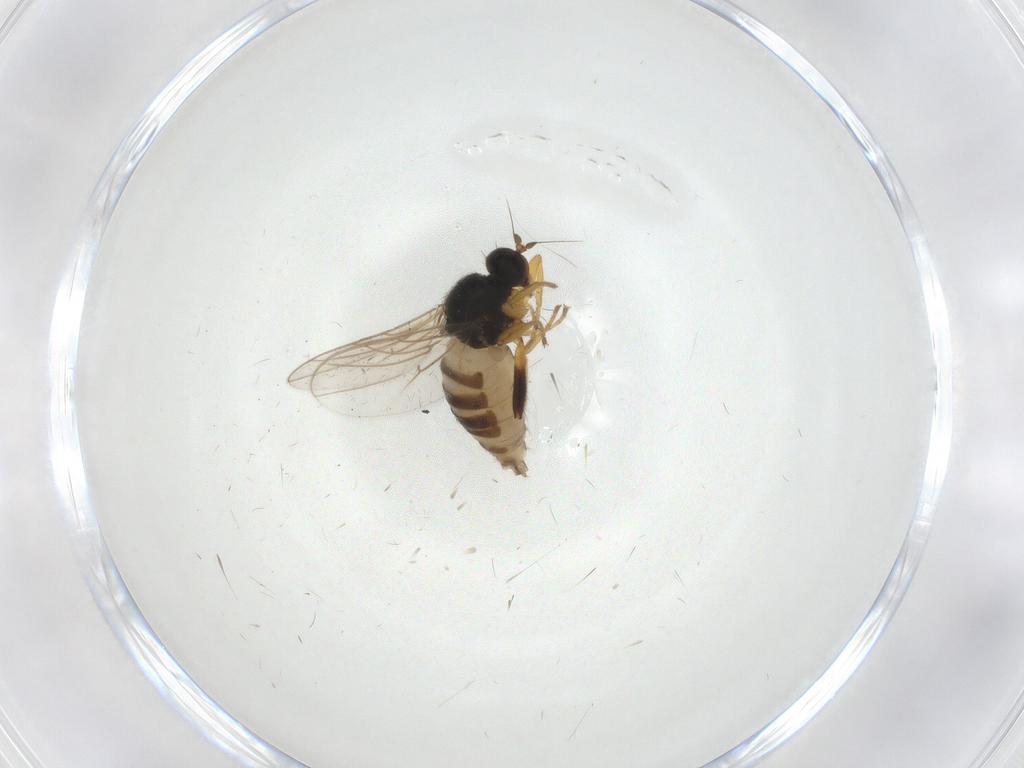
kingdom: Animalia
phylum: Arthropoda
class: Insecta
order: Diptera
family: Hybotidae
